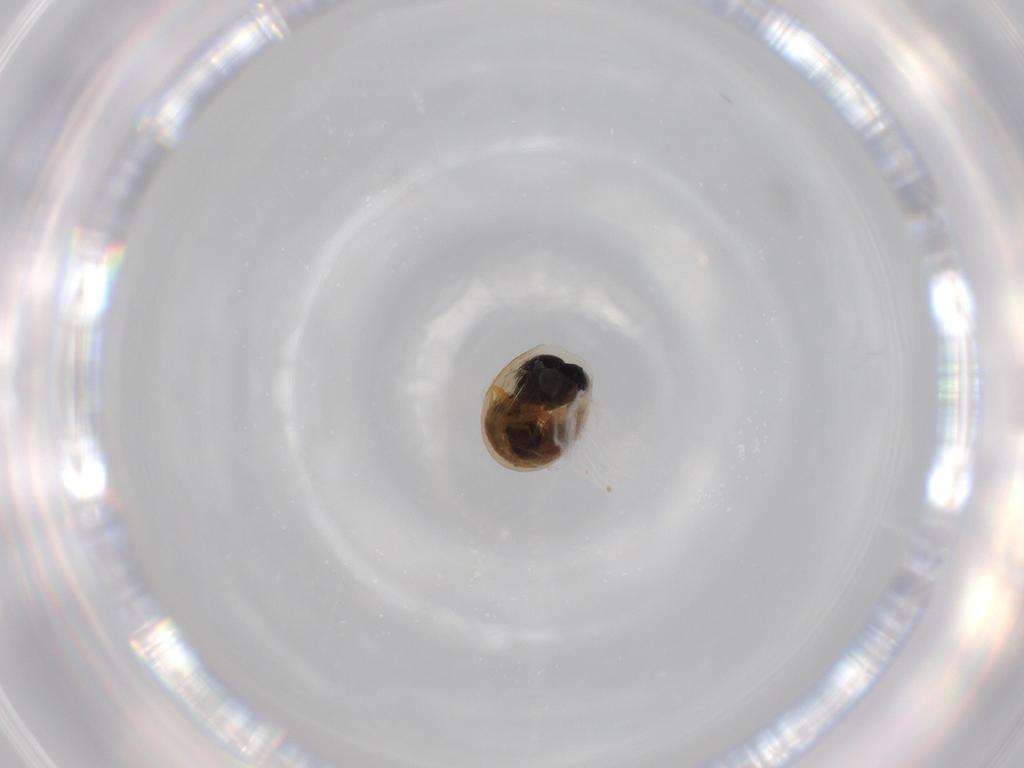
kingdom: Animalia
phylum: Arthropoda
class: Insecta
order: Hymenoptera
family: Scelionidae
